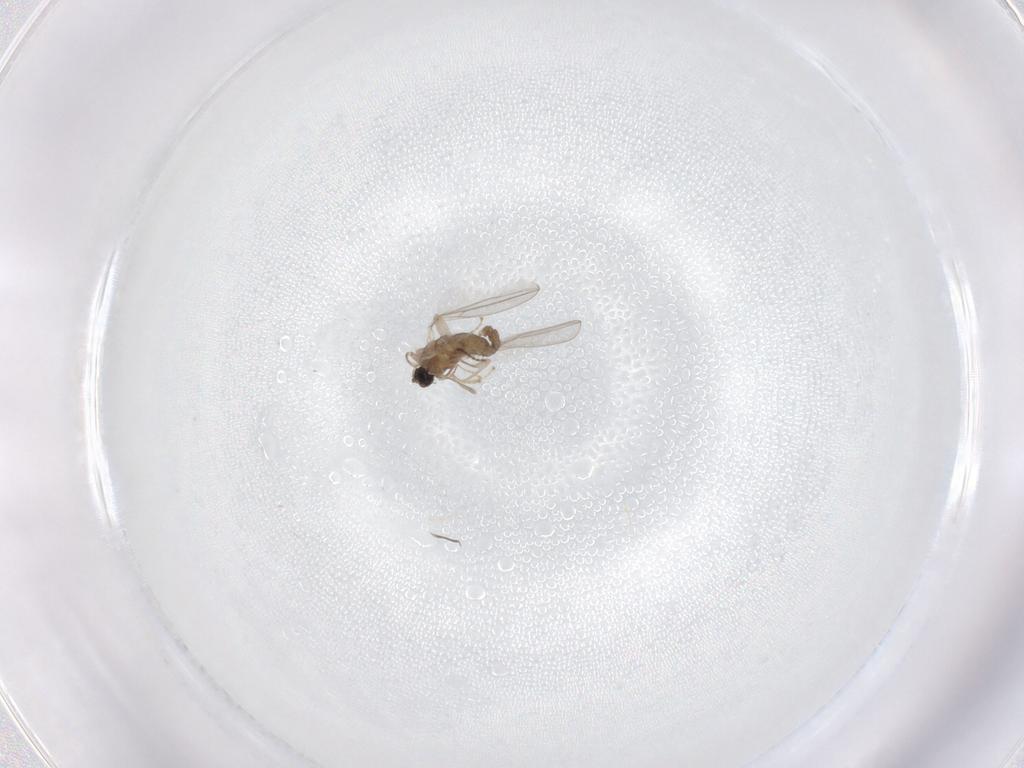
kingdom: Animalia
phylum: Arthropoda
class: Insecta
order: Diptera
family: Cecidomyiidae
